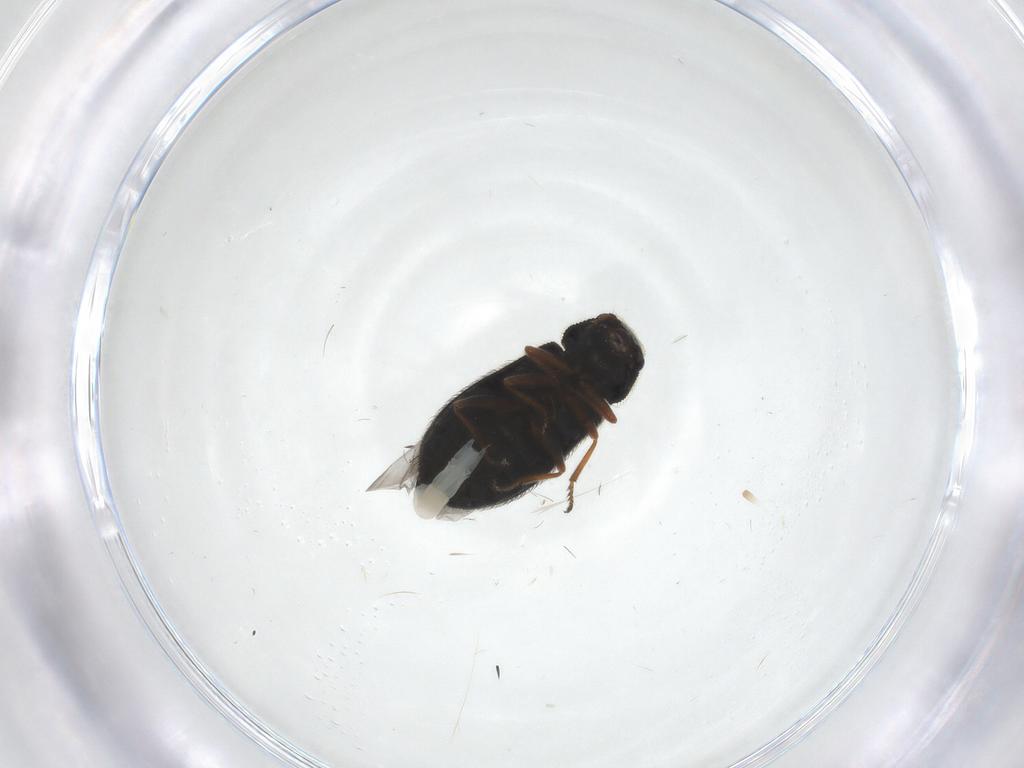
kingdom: Animalia
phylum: Arthropoda
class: Insecta
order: Coleoptera
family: Melyridae
